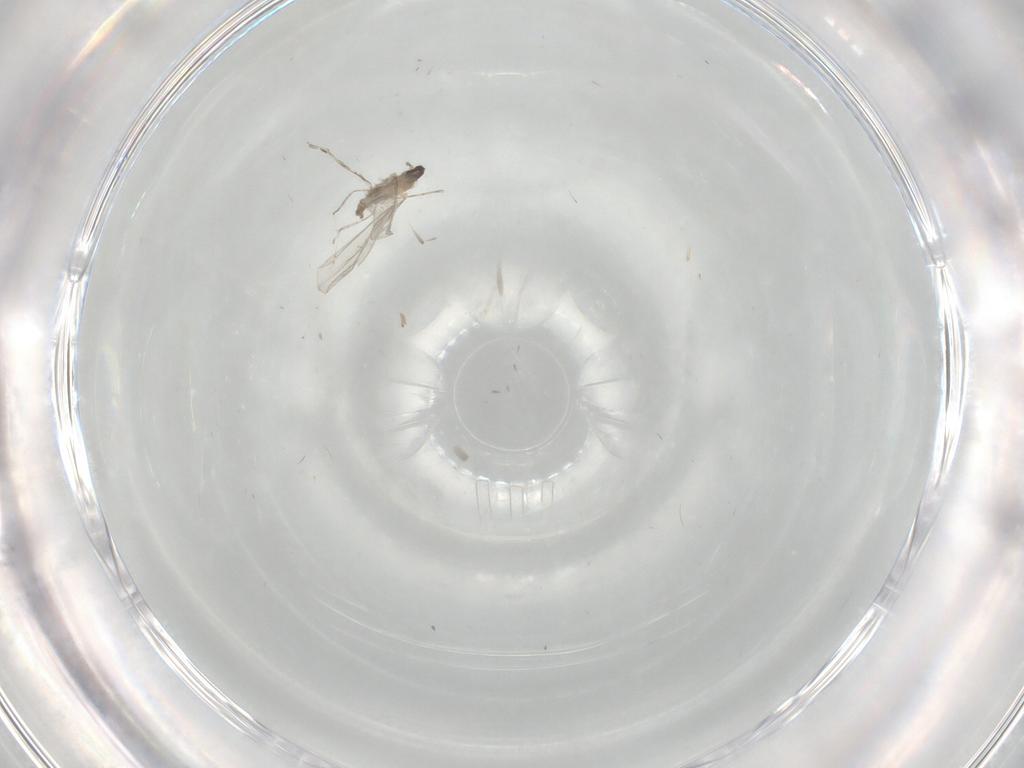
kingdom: Animalia
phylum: Arthropoda
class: Insecta
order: Diptera
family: Cecidomyiidae
